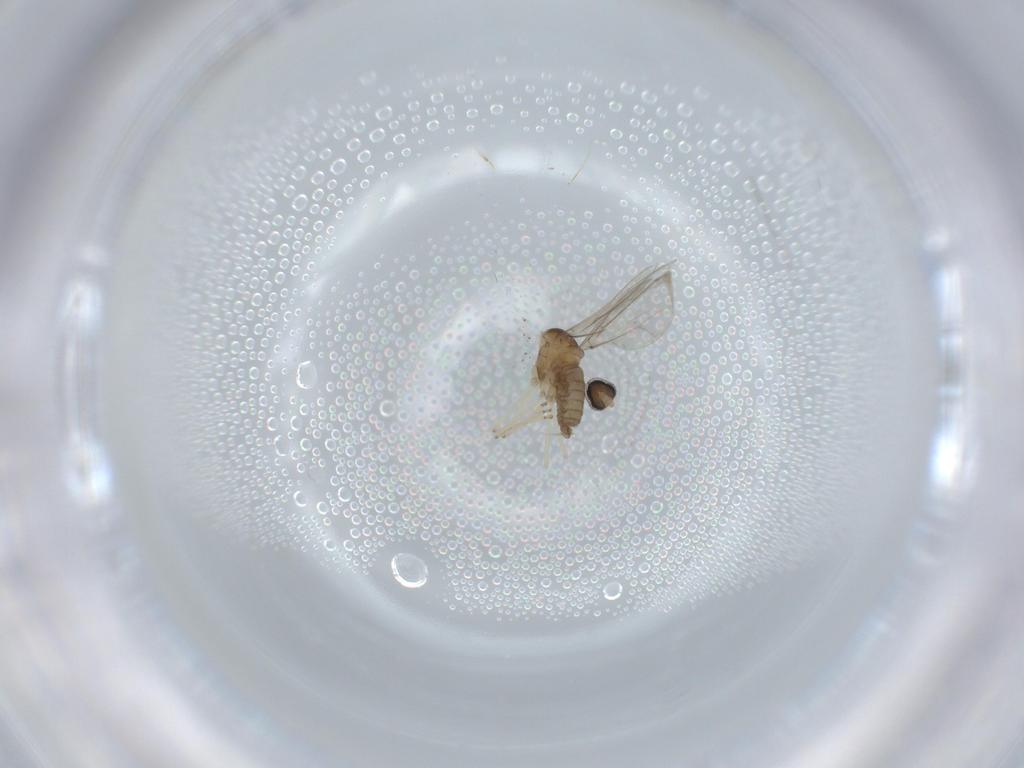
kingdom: Animalia
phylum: Arthropoda
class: Insecta
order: Diptera
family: Cecidomyiidae
